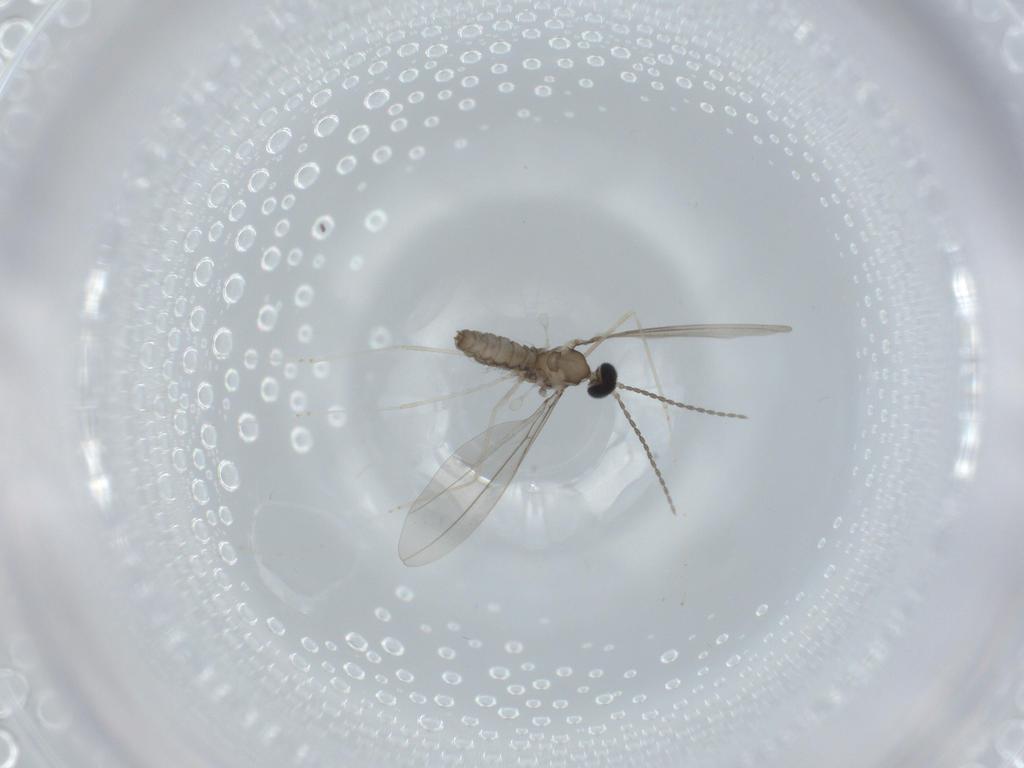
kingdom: Animalia
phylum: Arthropoda
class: Insecta
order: Diptera
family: Cecidomyiidae
